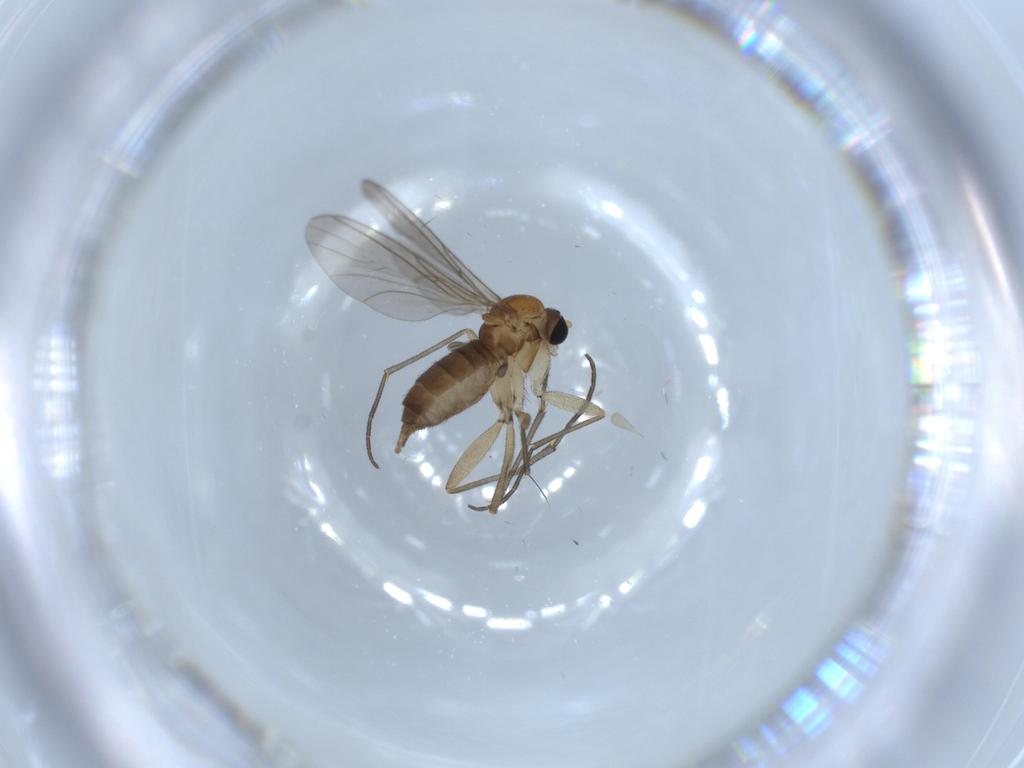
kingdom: Animalia
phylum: Arthropoda
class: Insecta
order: Diptera
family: Sciaridae
